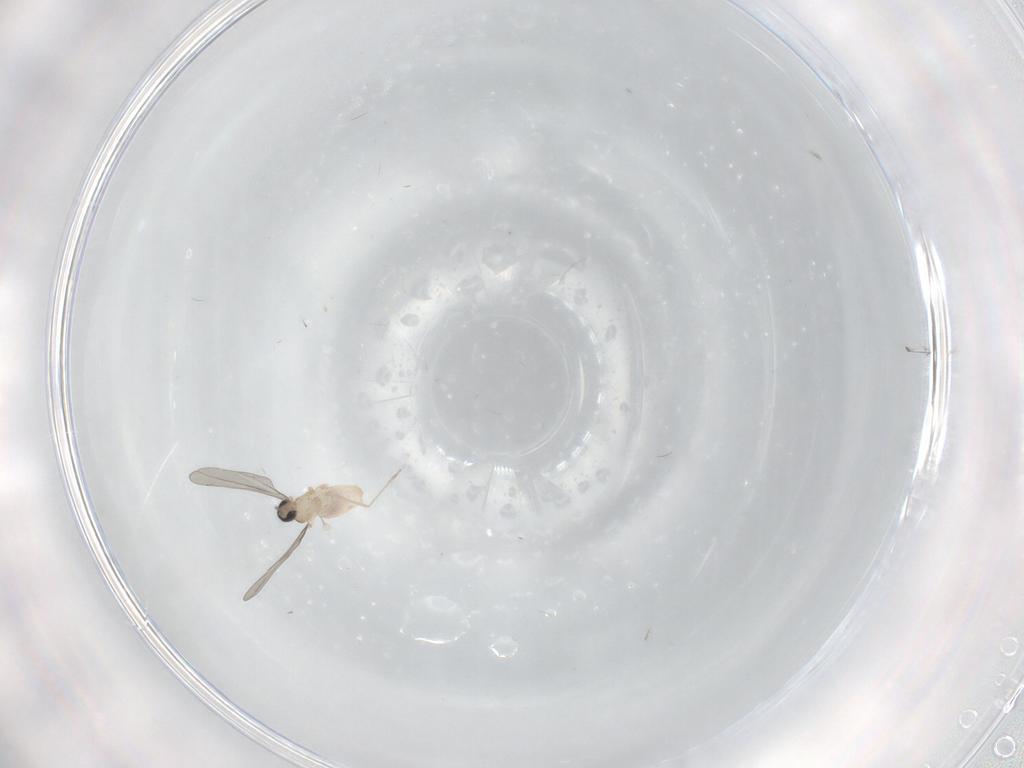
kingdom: Animalia
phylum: Arthropoda
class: Insecta
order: Diptera
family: Cecidomyiidae
